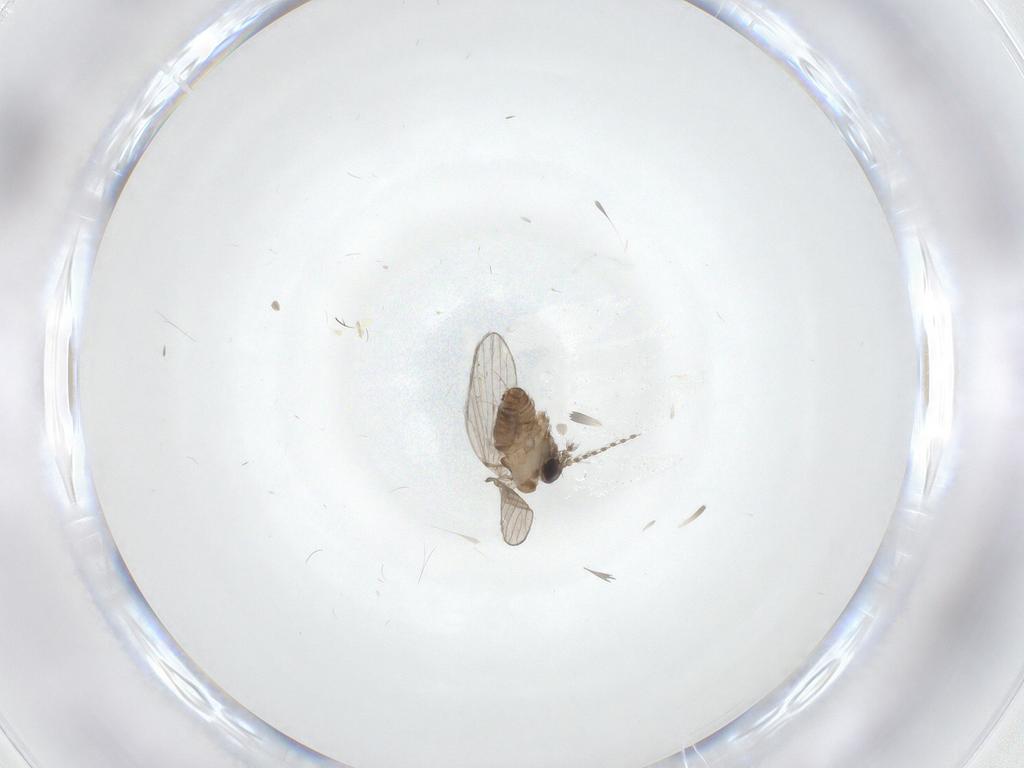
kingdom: Animalia
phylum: Arthropoda
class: Insecta
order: Diptera
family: Psychodidae
